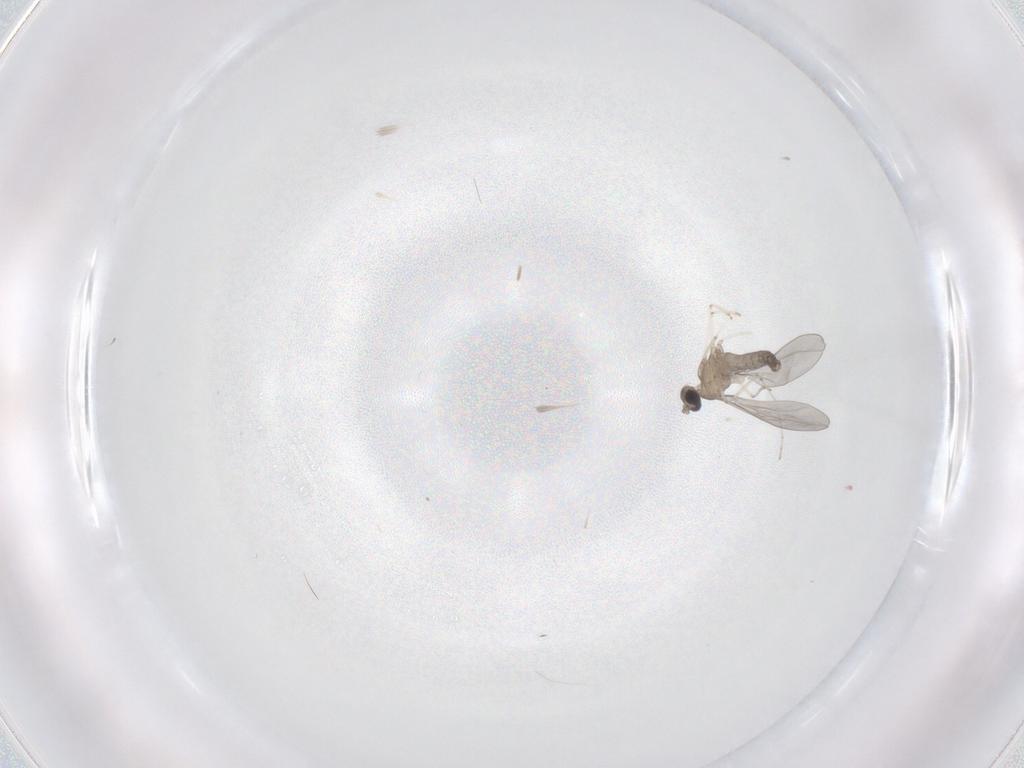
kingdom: Animalia
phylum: Arthropoda
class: Insecta
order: Diptera
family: Cecidomyiidae
